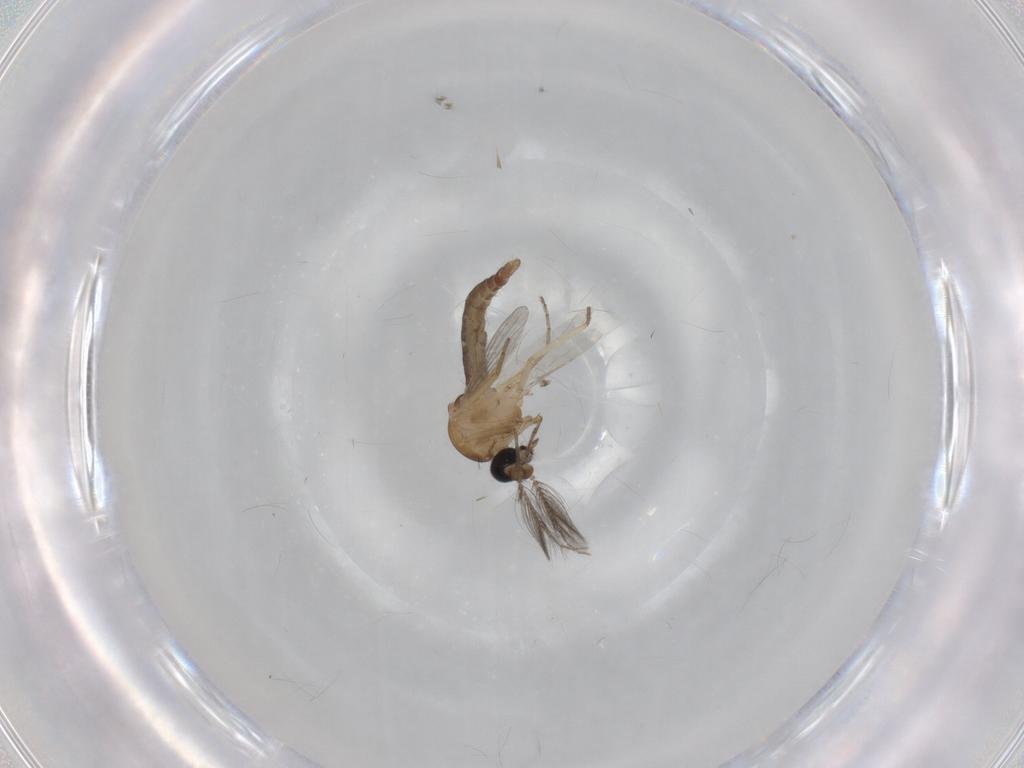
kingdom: Animalia
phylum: Arthropoda
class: Insecta
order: Diptera
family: Ceratopogonidae
